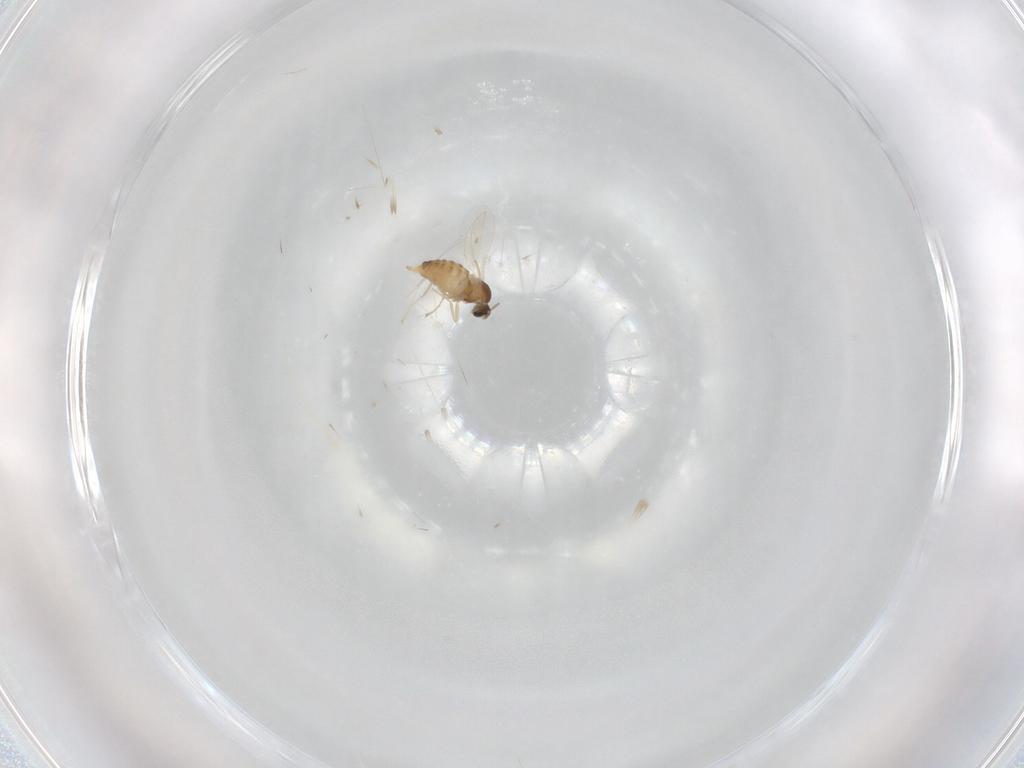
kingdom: Animalia
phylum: Arthropoda
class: Insecta
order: Diptera
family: Cecidomyiidae
